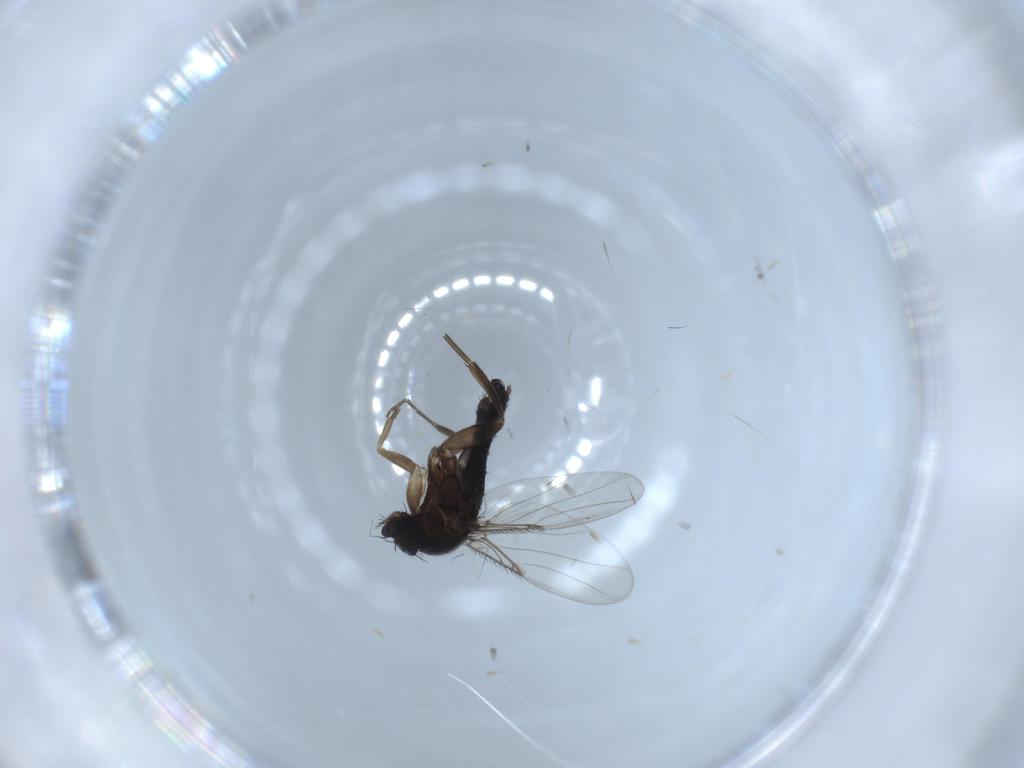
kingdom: Animalia
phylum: Arthropoda
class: Insecta
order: Diptera
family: Phoridae
